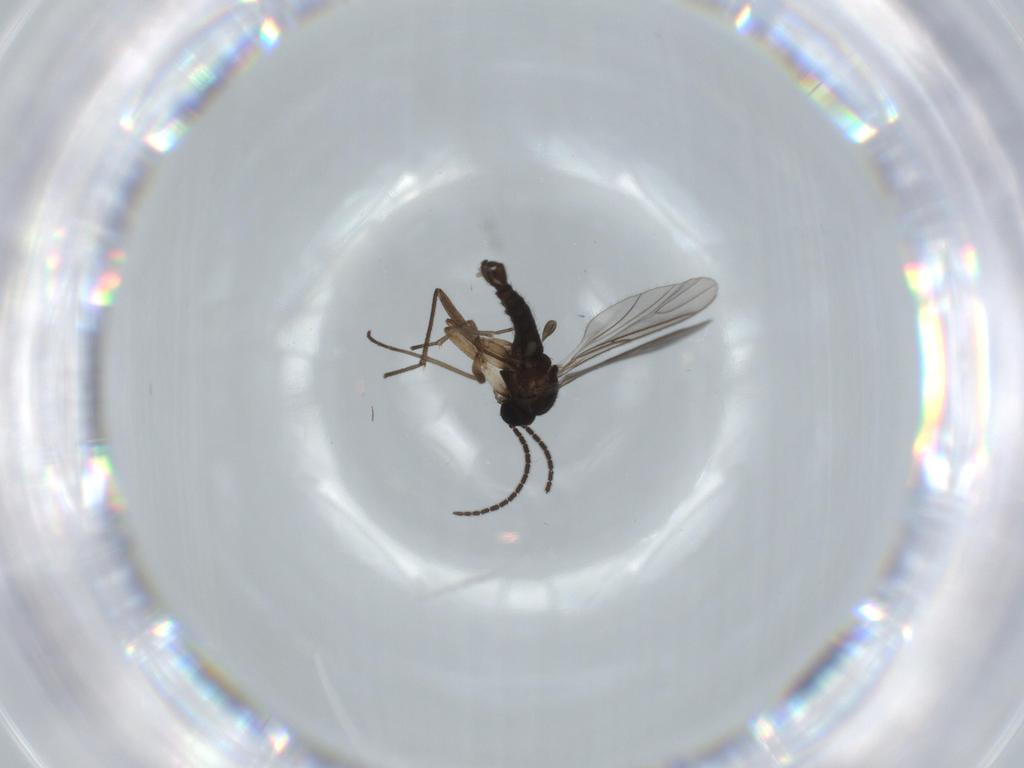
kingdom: Animalia
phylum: Arthropoda
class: Insecta
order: Diptera
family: Sciaridae
